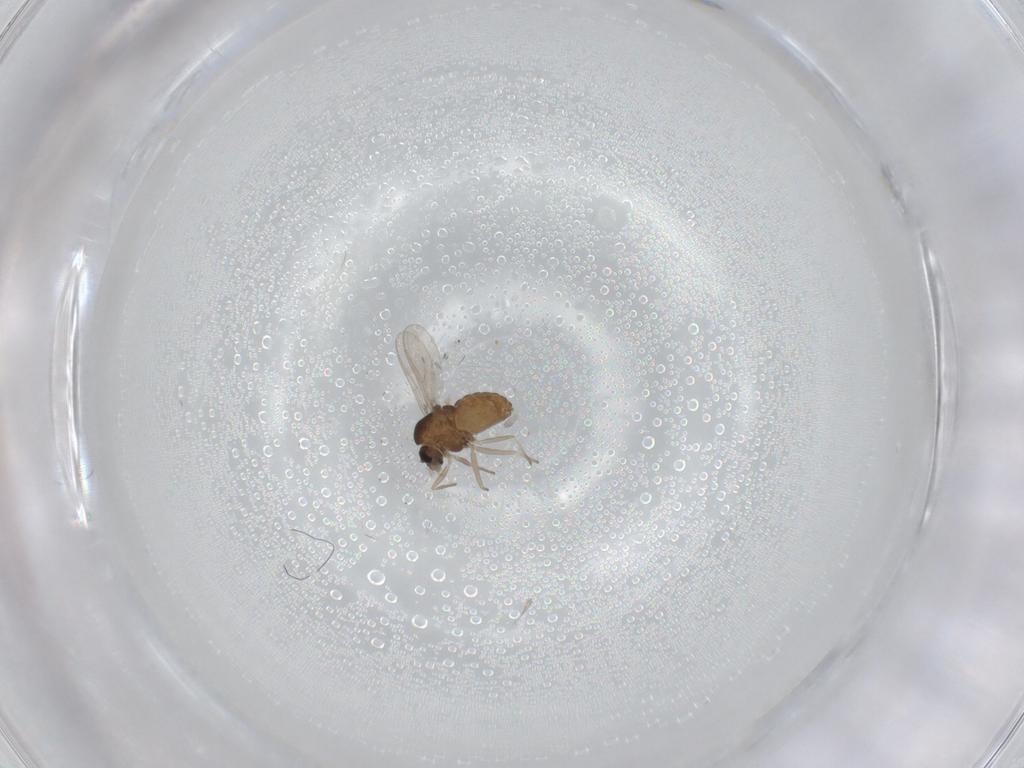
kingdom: Animalia
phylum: Arthropoda
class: Insecta
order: Diptera
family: Chironomidae
